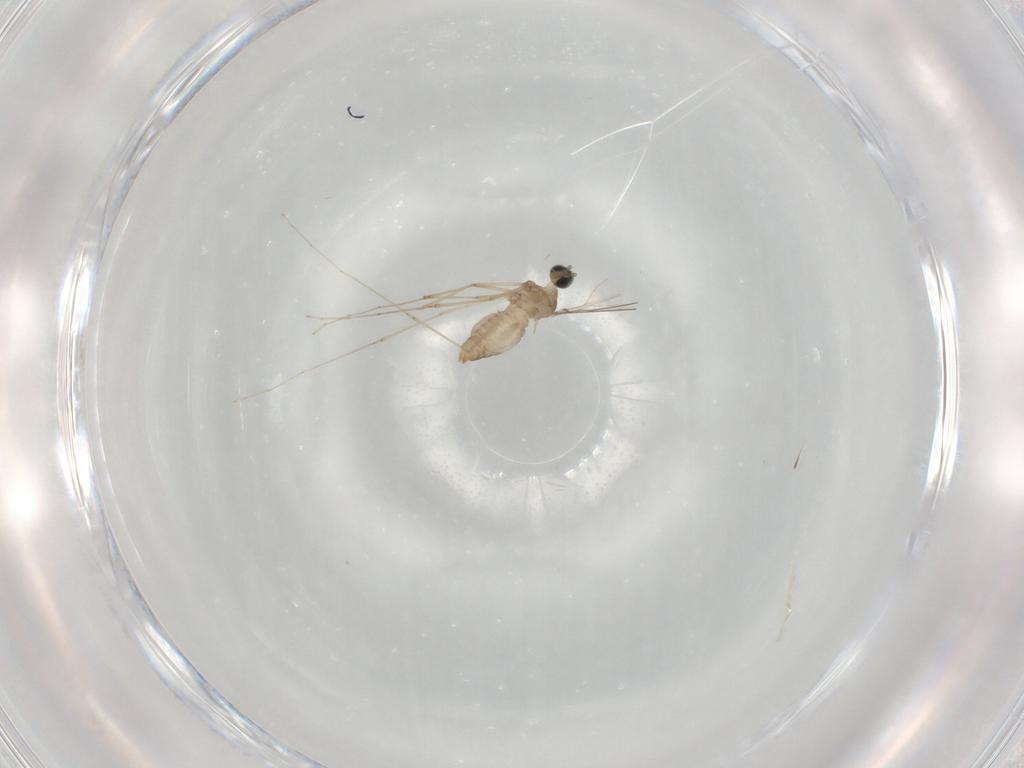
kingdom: Animalia
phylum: Arthropoda
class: Insecta
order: Diptera
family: Cecidomyiidae
